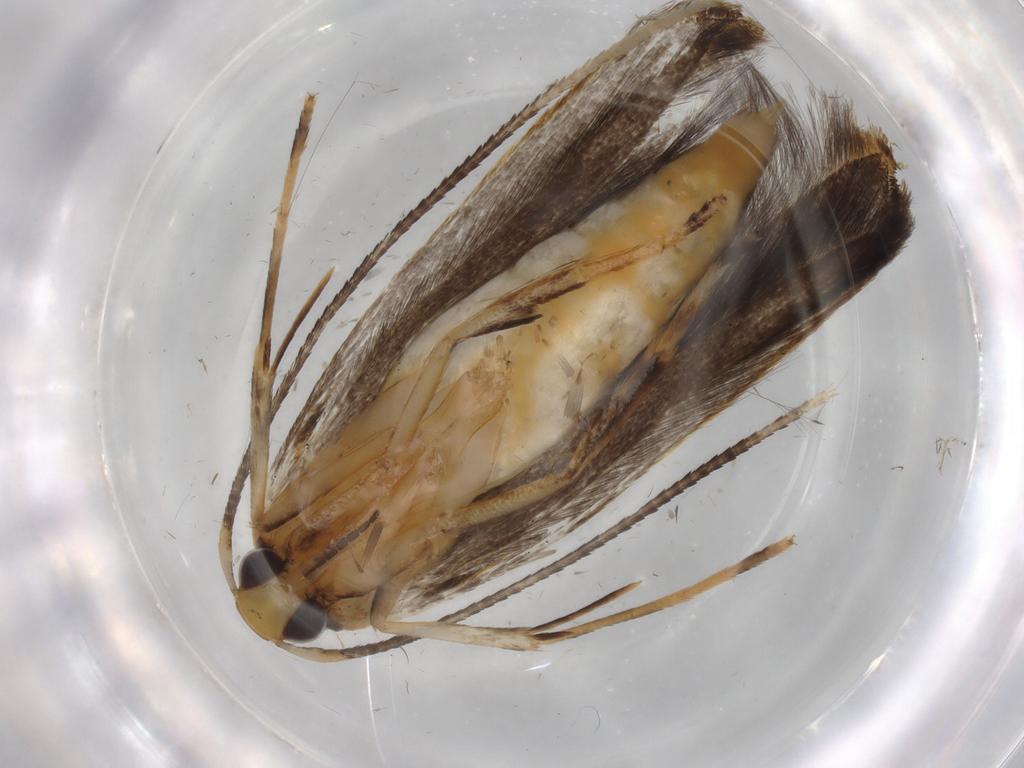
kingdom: Animalia
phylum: Arthropoda
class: Insecta
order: Lepidoptera
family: Pterolonchidae
